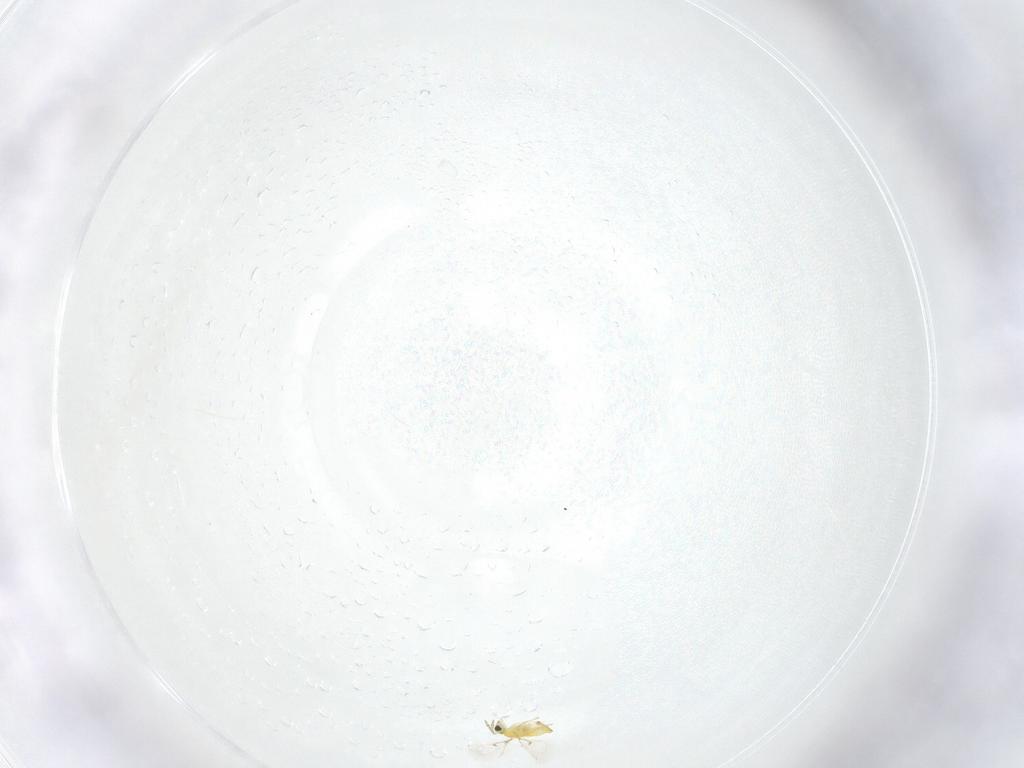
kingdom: Animalia
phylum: Arthropoda
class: Insecta
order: Hymenoptera
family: Trichogrammatidae
